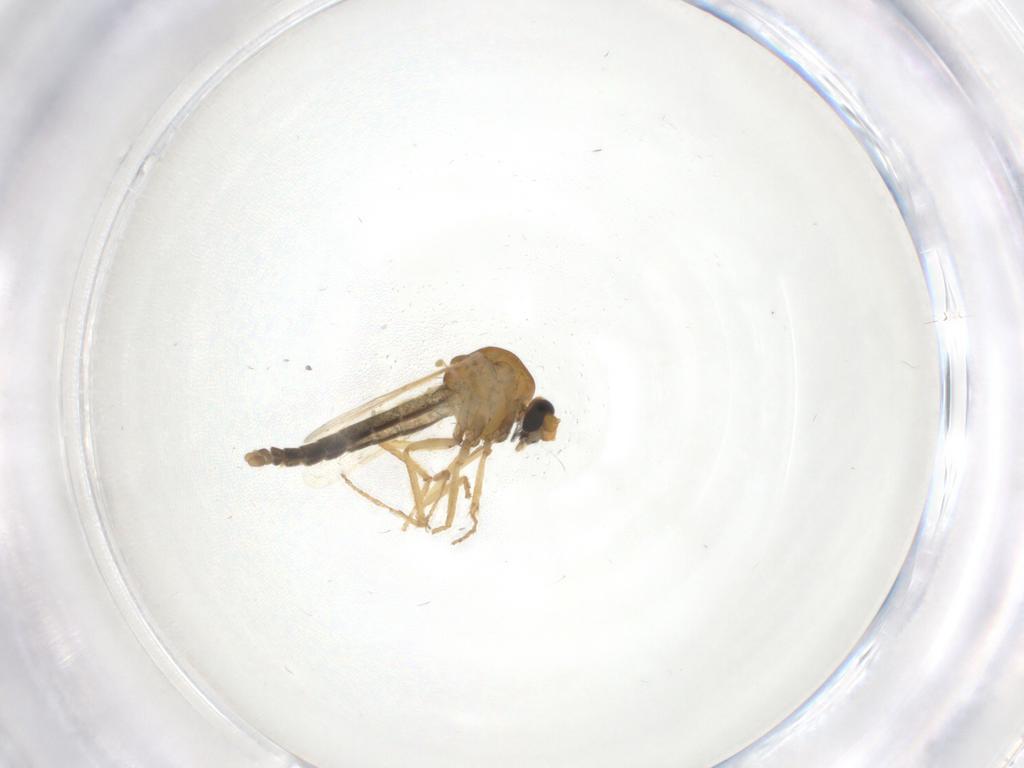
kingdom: Animalia
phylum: Arthropoda
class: Insecta
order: Diptera
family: Ceratopogonidae
